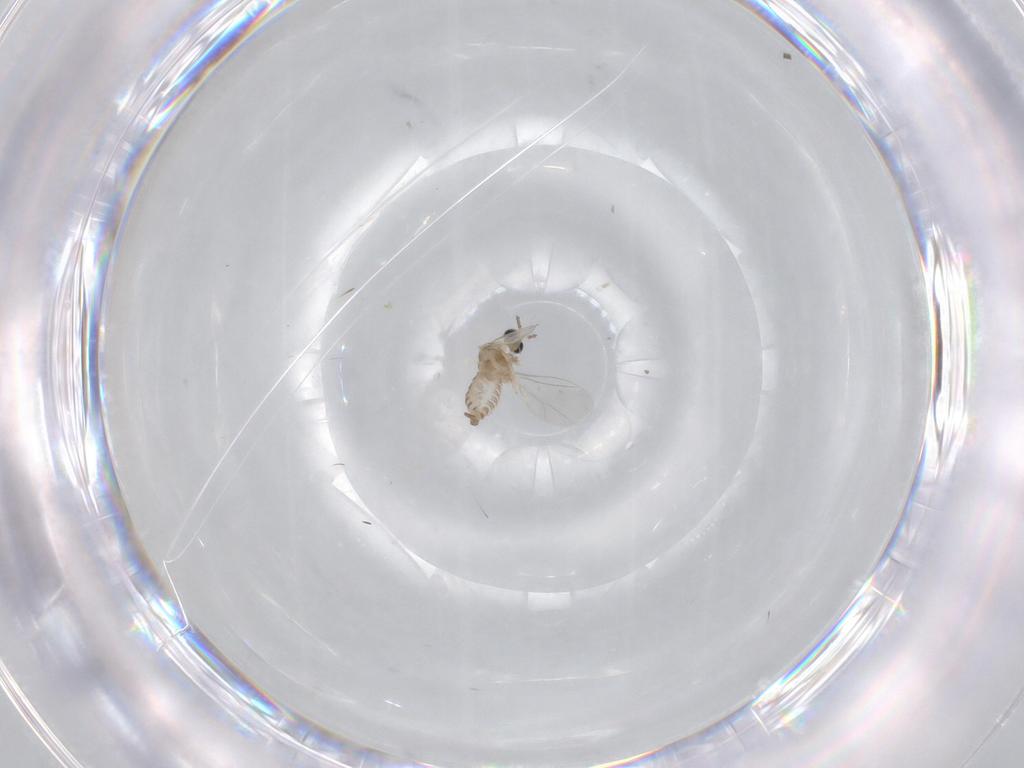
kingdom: Animalia
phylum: Arthropoda
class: Insecta
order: Diptera
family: Cecidomyiidae
